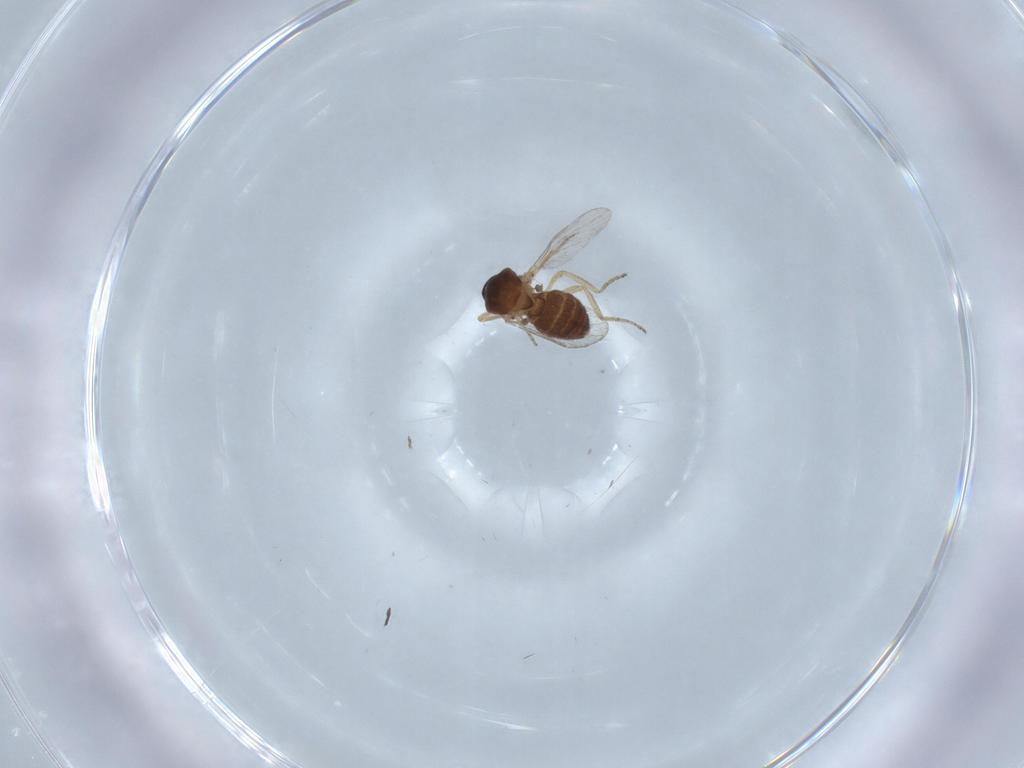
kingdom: Animalia
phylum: Arthropoda
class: Insecta
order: Diptera
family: Ceratopogonidae
